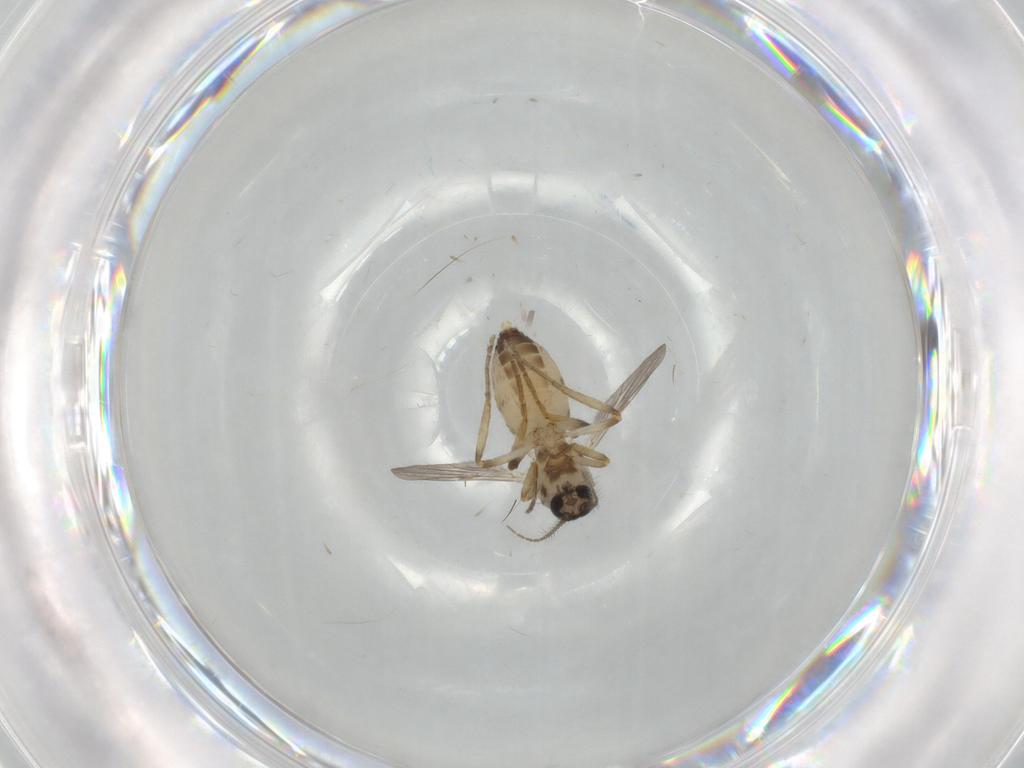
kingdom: Animalia
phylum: Arthropoda
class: Insecta
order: Diptera
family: Ceratopogonidae
